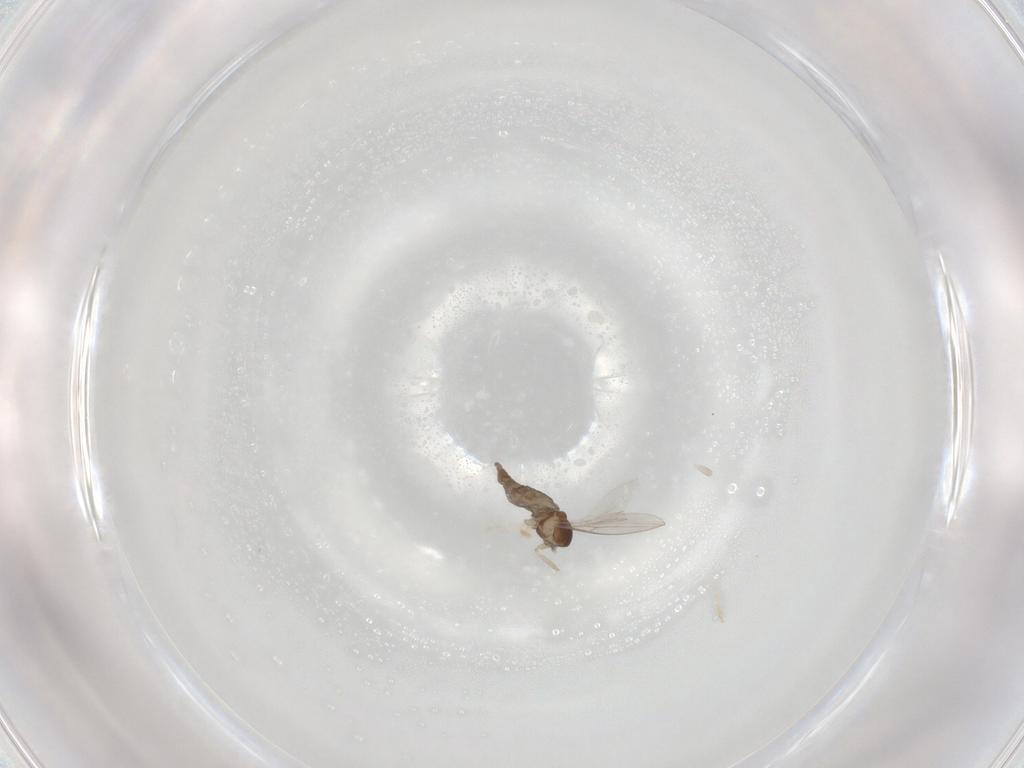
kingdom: Animalia
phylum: Arthropoda
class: Insecta
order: Diptera
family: Cecidomyiidae
